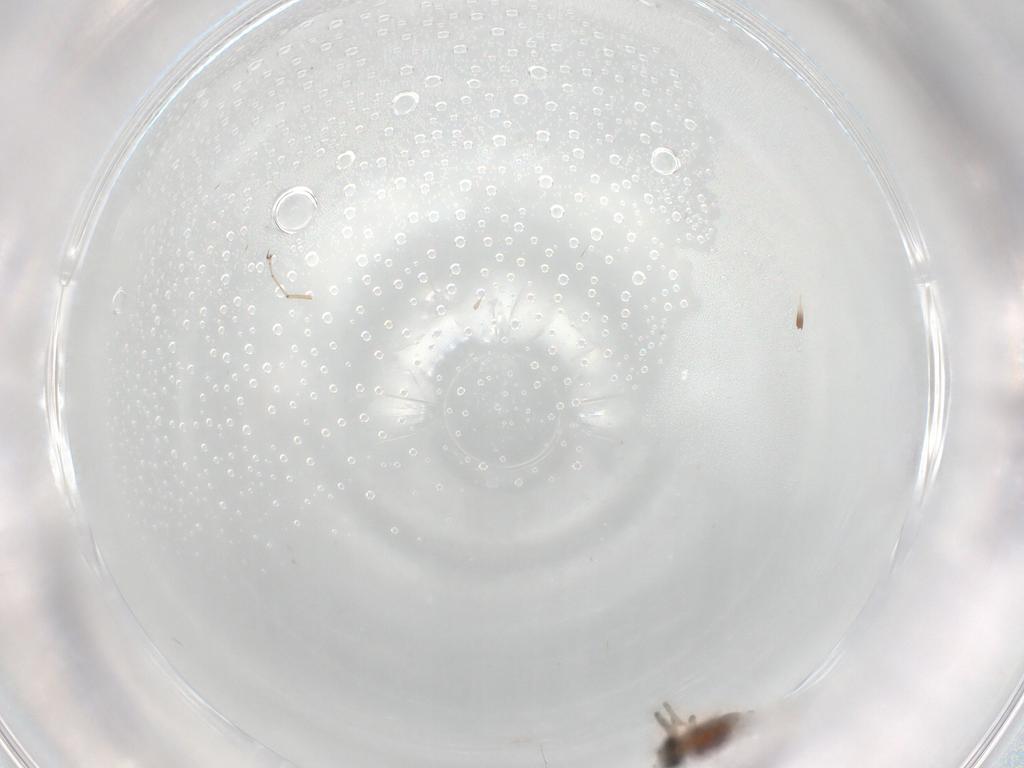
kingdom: Animalia
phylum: Arthropoda
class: Insecta
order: Diptera
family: Ceratopogonidae
